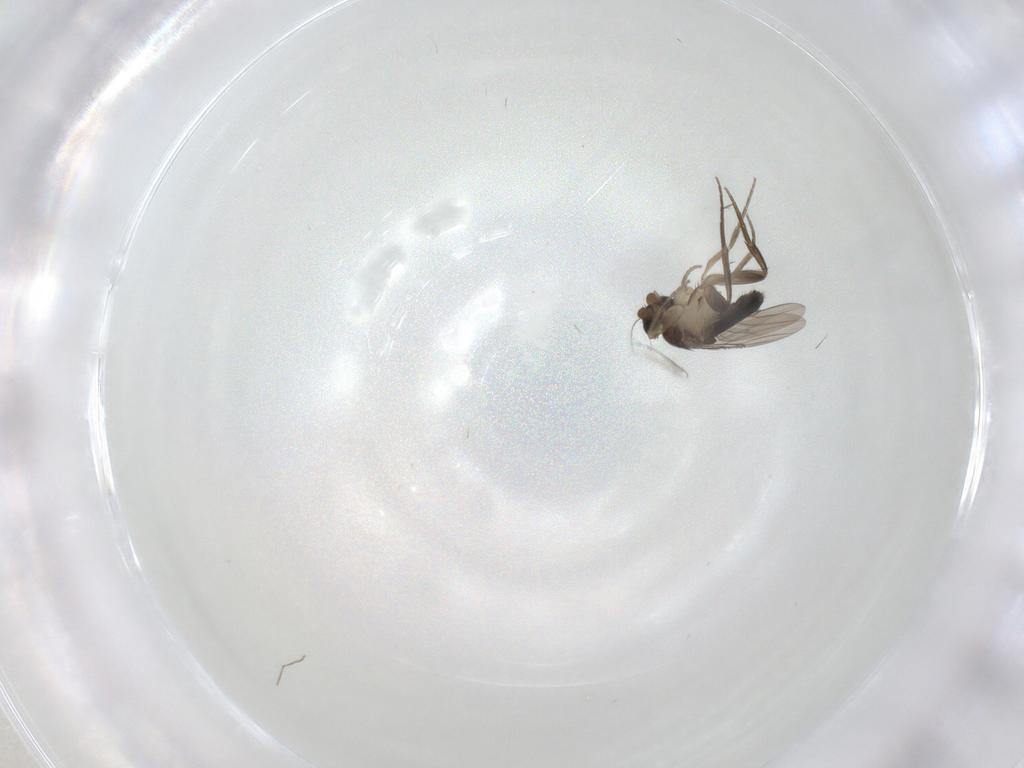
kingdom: Animalia
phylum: Arthropoda
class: Insecta
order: Diptera
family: Phoridae
